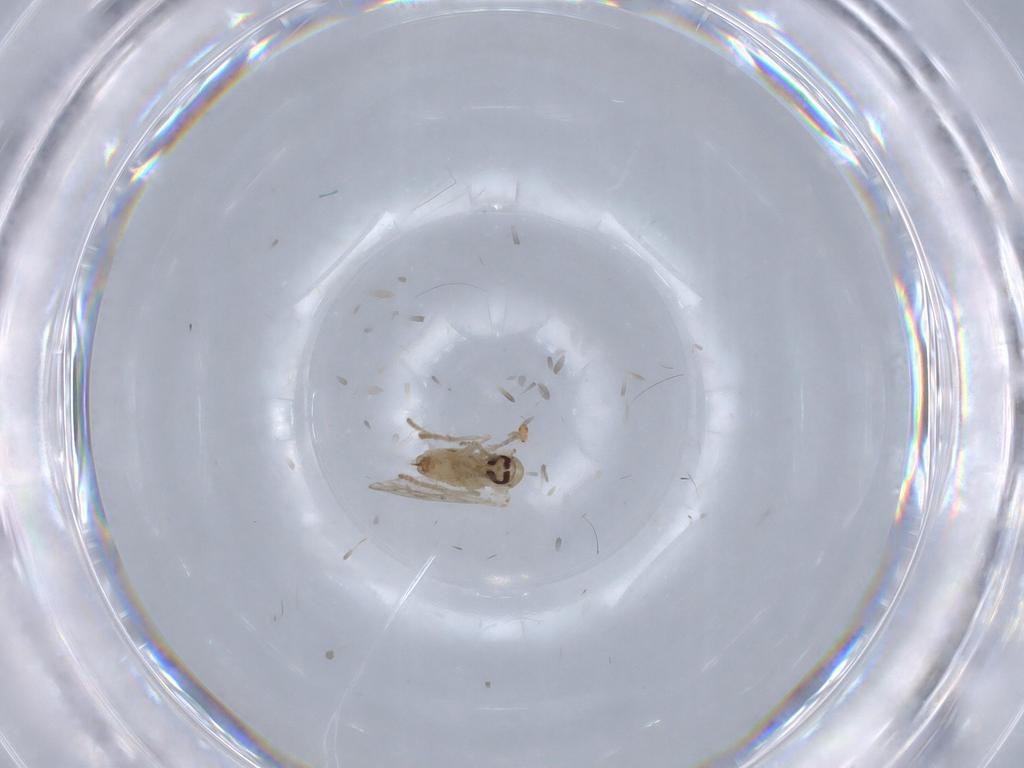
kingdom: Animalia
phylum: Arthropoda
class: Insecta
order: Diptera
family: Psychodidae
